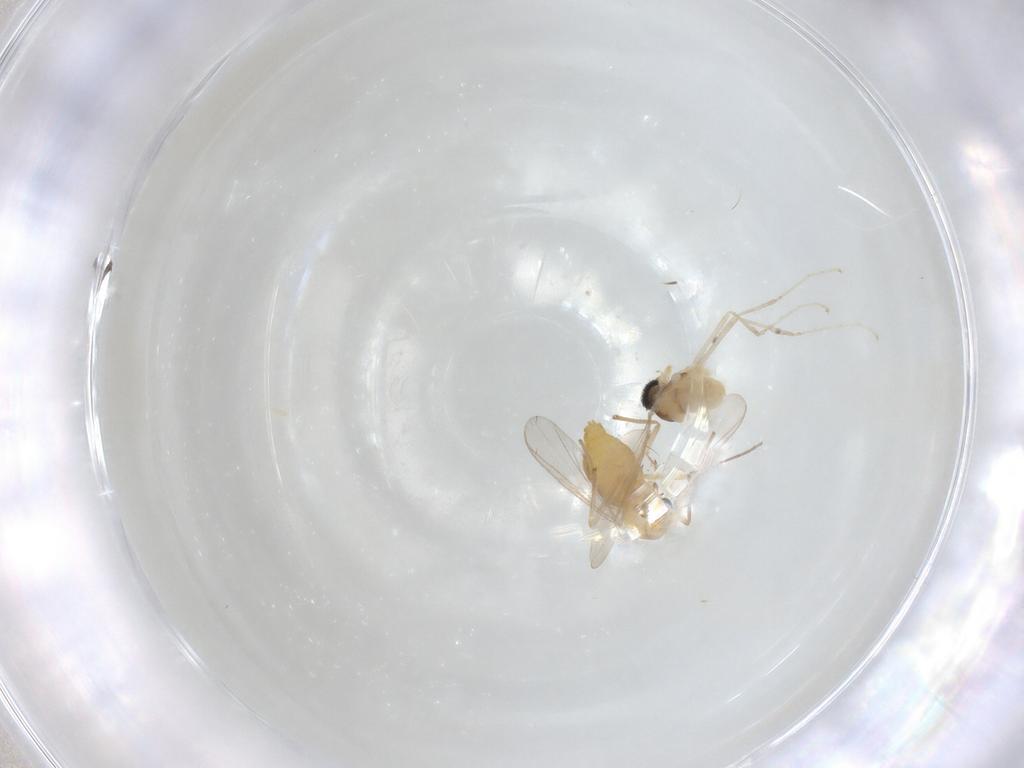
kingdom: Animalia
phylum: Arthropoda
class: Insecta
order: Diptera
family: Chironomidae
